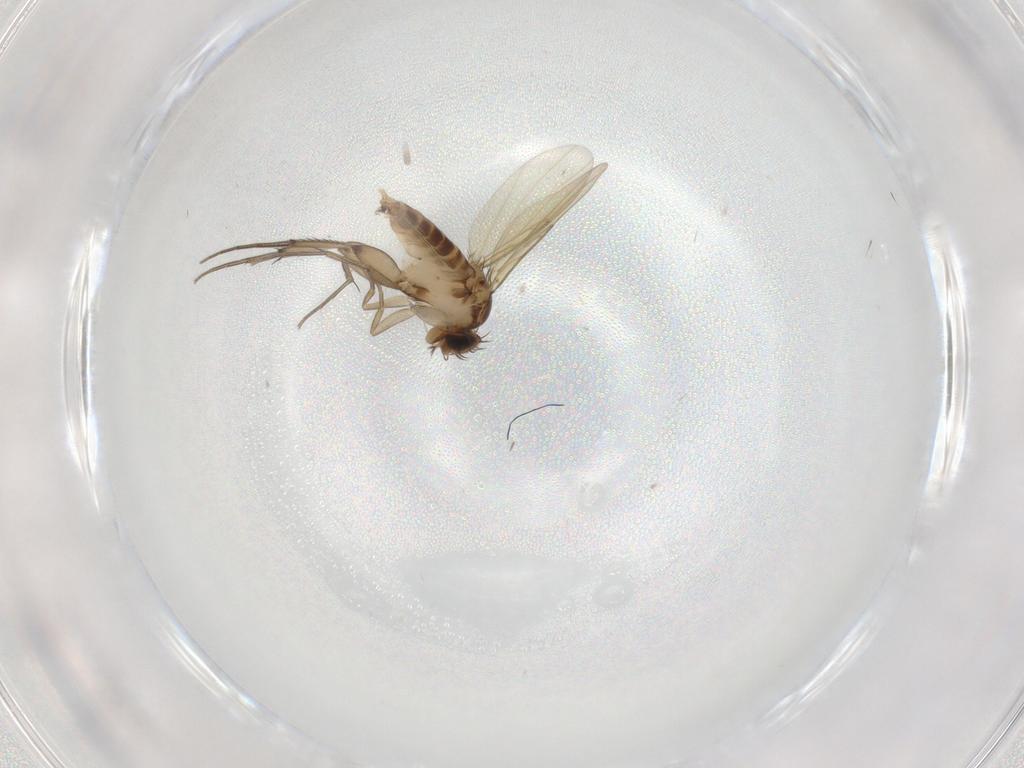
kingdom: Animalia
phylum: Arthropoda
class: Insecta
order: Diptera
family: Phoridae
